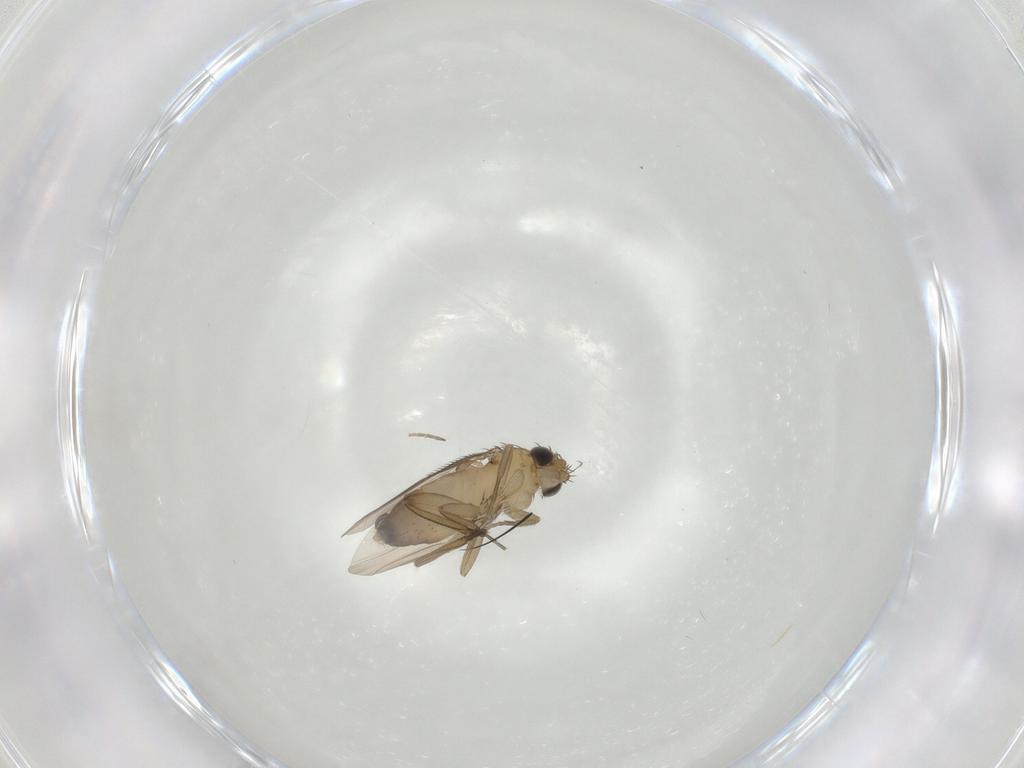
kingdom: Animalia
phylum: Arthropoda
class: Insecta
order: Diptera
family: Phoridae
